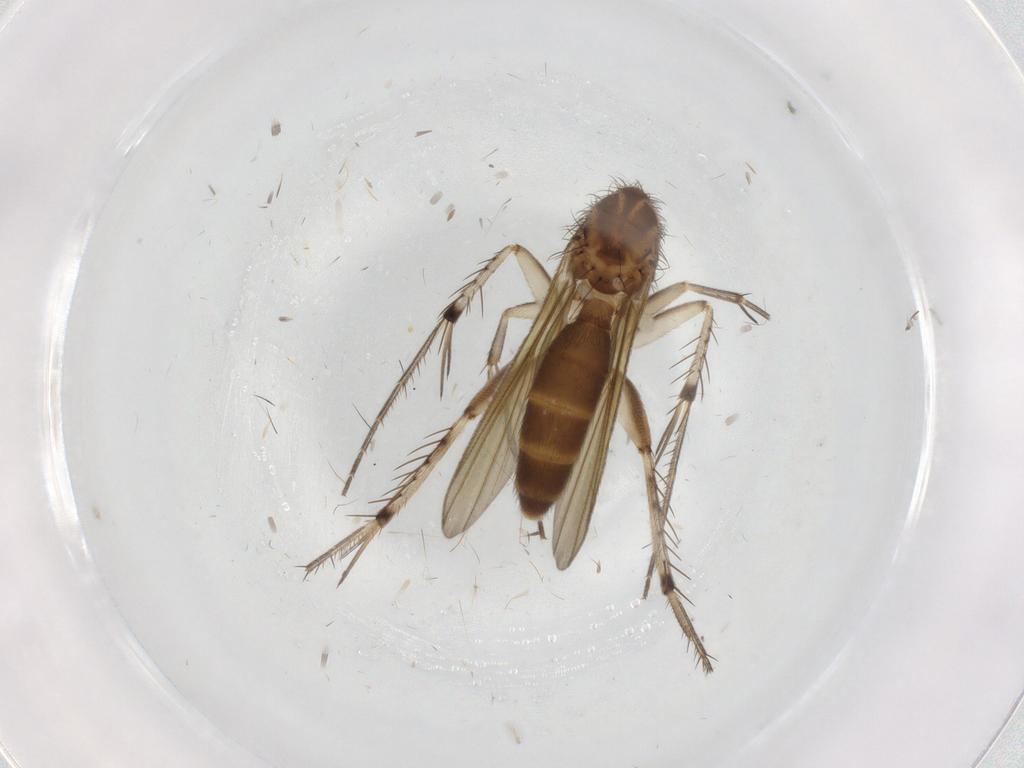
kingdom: Animalia
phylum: Arthropoda
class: Insecta
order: Diptera
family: Mycetophilidae
